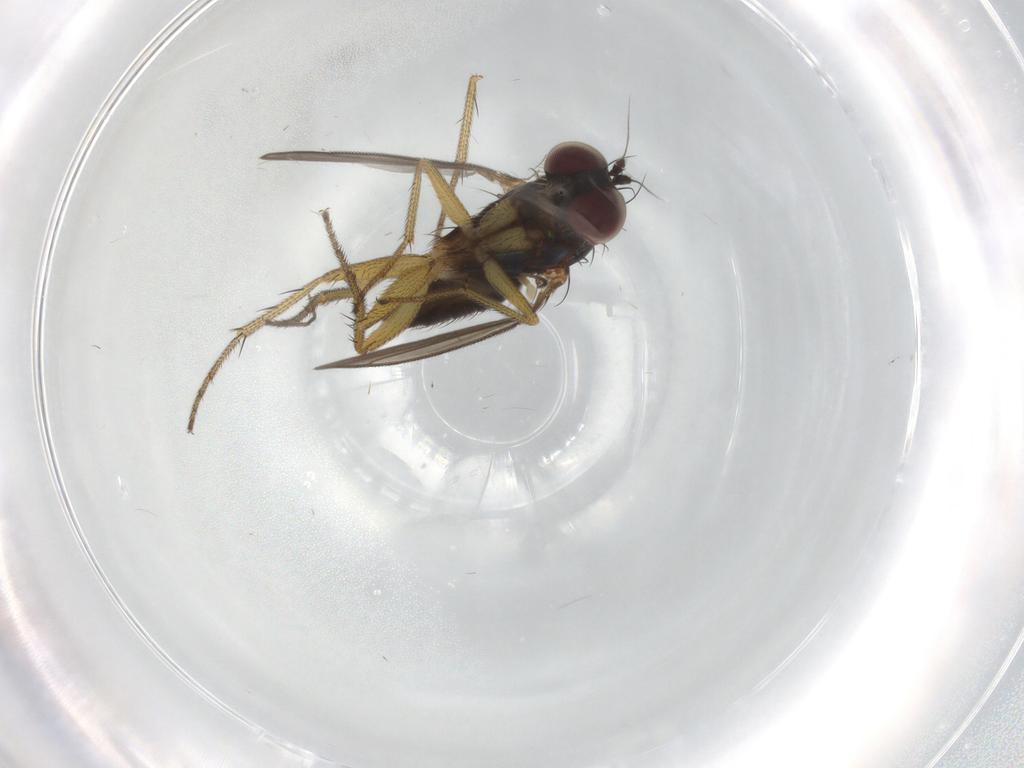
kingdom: Animalia
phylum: Arthropoda
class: Insecta
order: Diptera
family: Dolichopodidae
